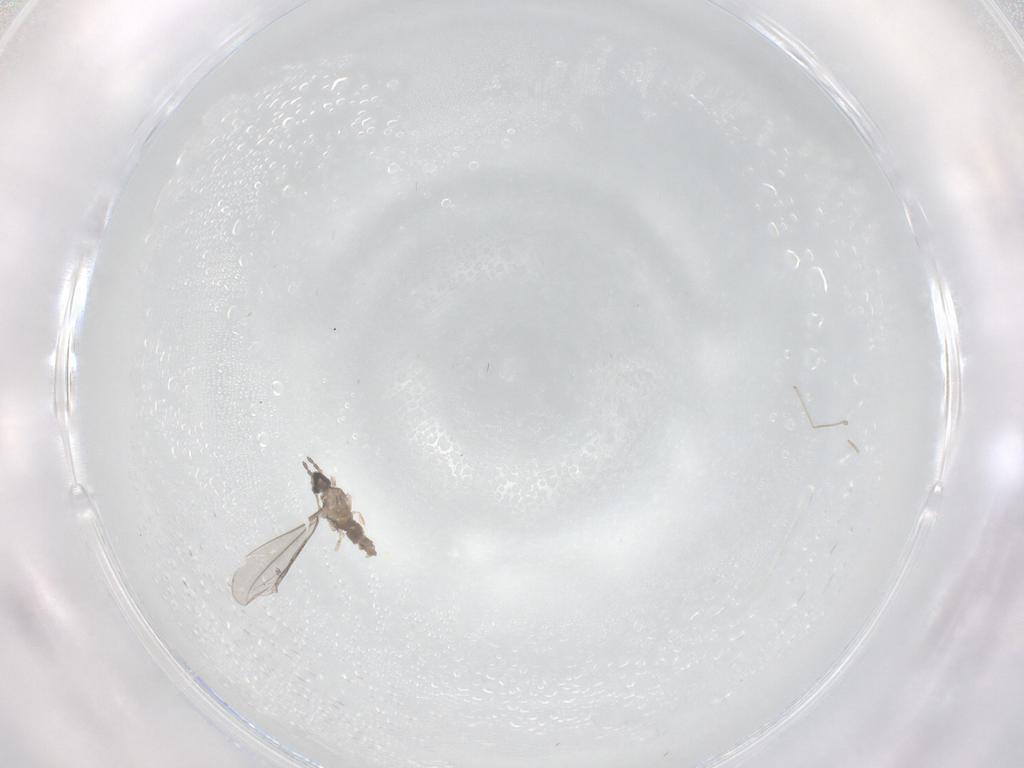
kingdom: Animalia
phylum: Arthropoda
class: Insecta
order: Diptera
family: Cecidomyiidae
